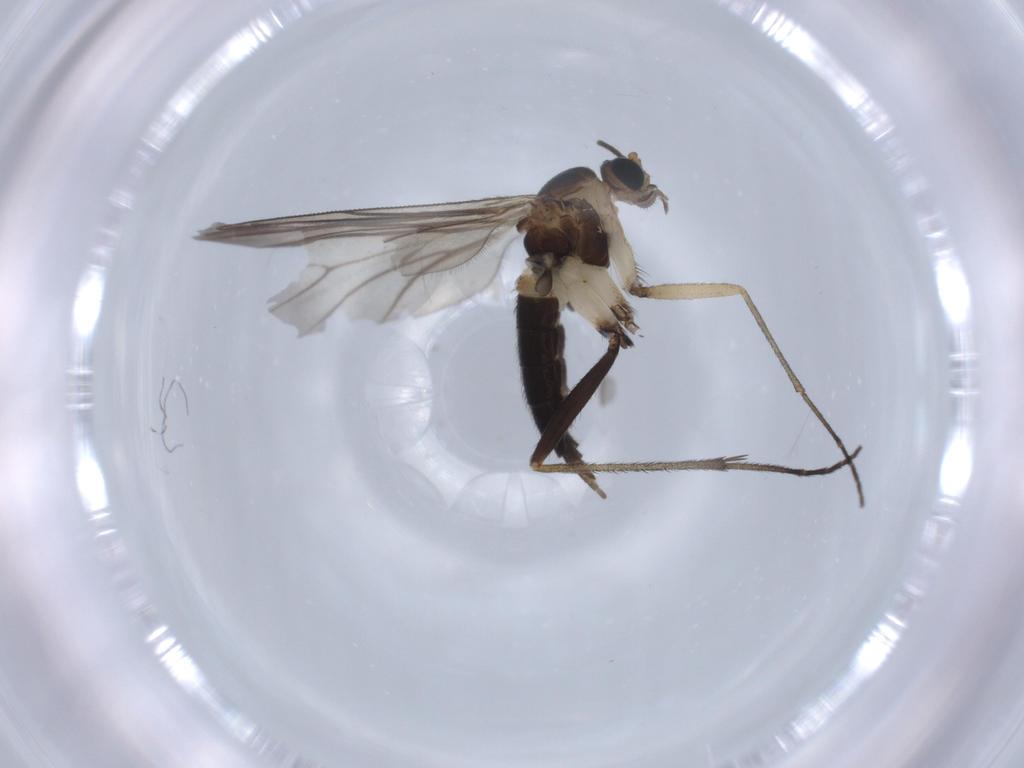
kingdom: Animalia
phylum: Arthropoda
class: Insecta
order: Diptera
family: Sciaridae
